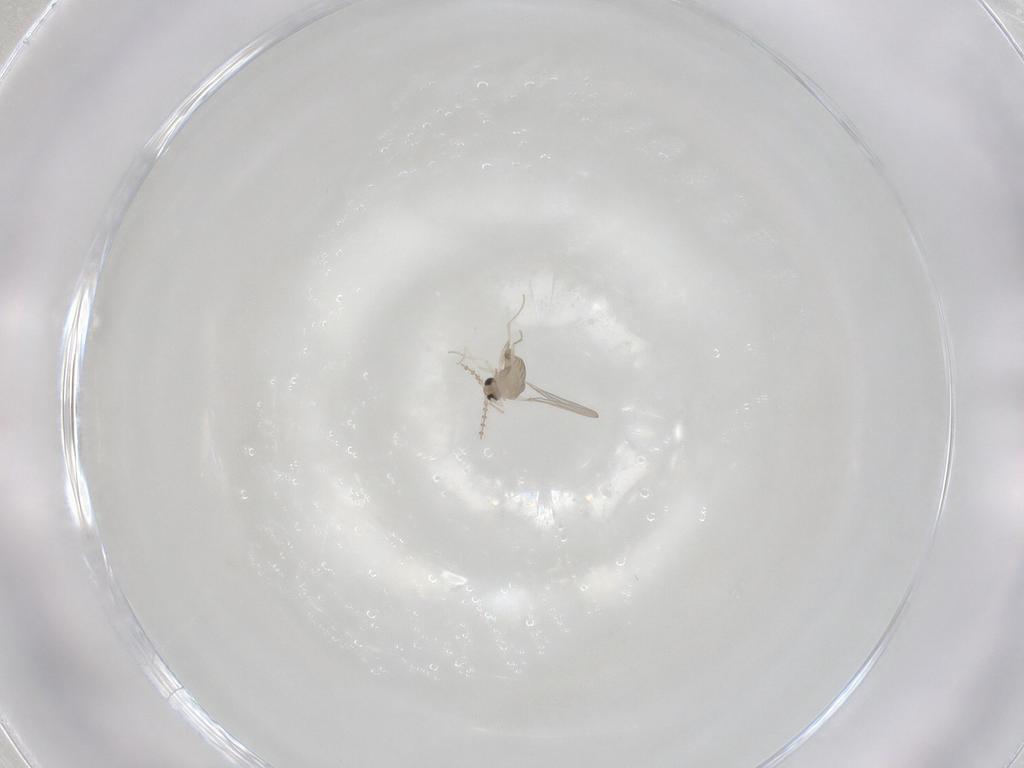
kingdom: Animalia
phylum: Arthropoda
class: Insecta
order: Diptera
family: Cecidomyiidae
